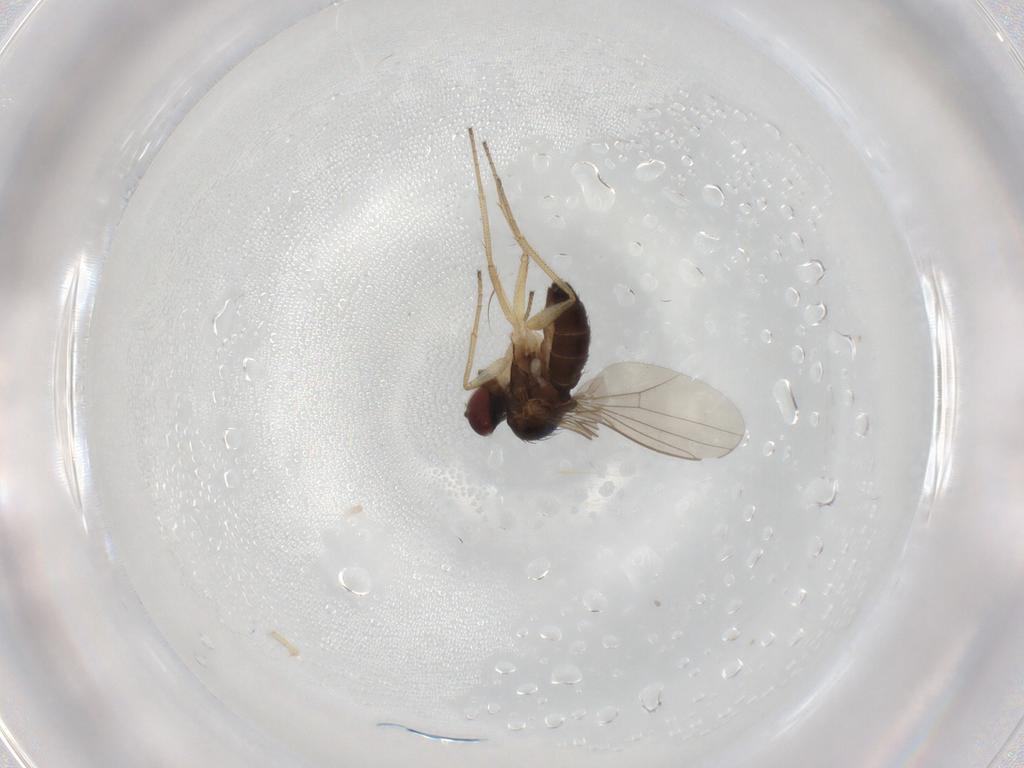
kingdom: Animalia
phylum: Arthropoda
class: Insecta
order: Diptera
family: Dolichopodidae
